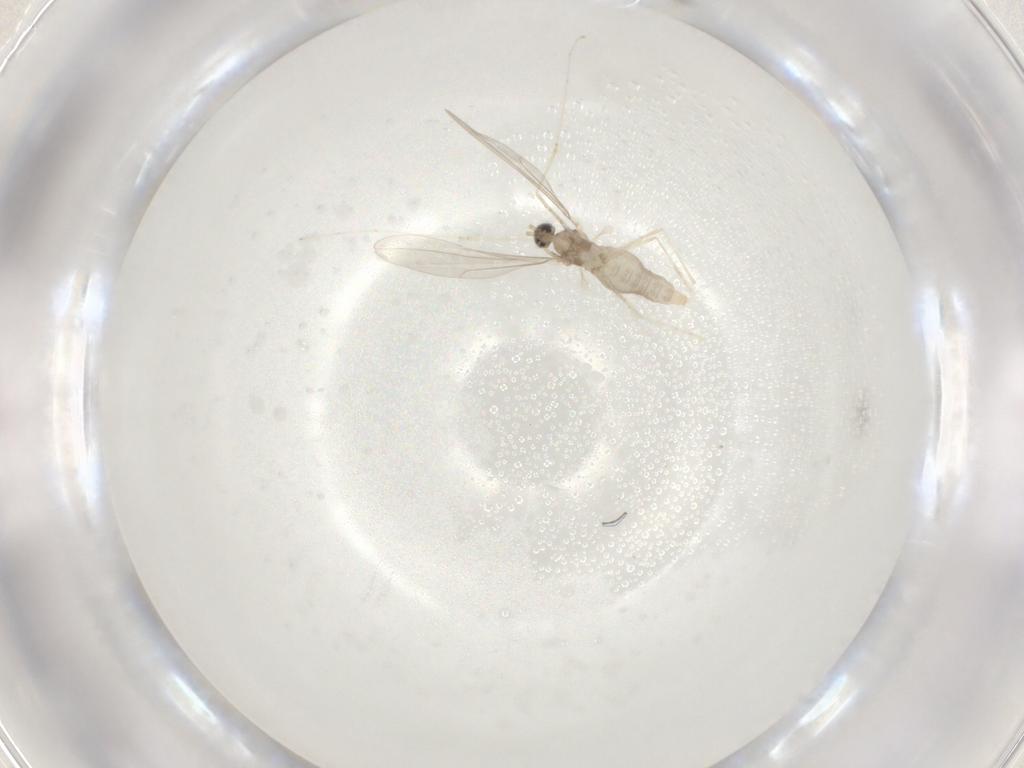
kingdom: Animalia
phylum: Arthropoda
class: Insecta
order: Diptera
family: Cecidomyiidae
